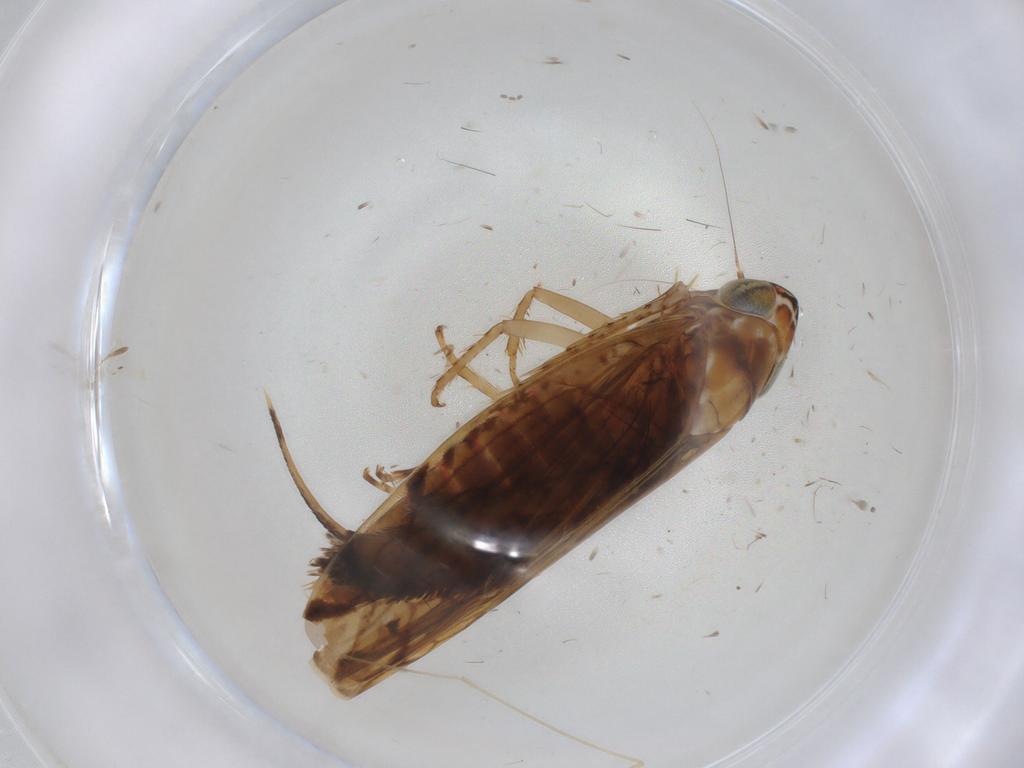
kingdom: Animalia
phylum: Arthropoda
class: Insecta
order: Hemiptera
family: Cicadellidae
